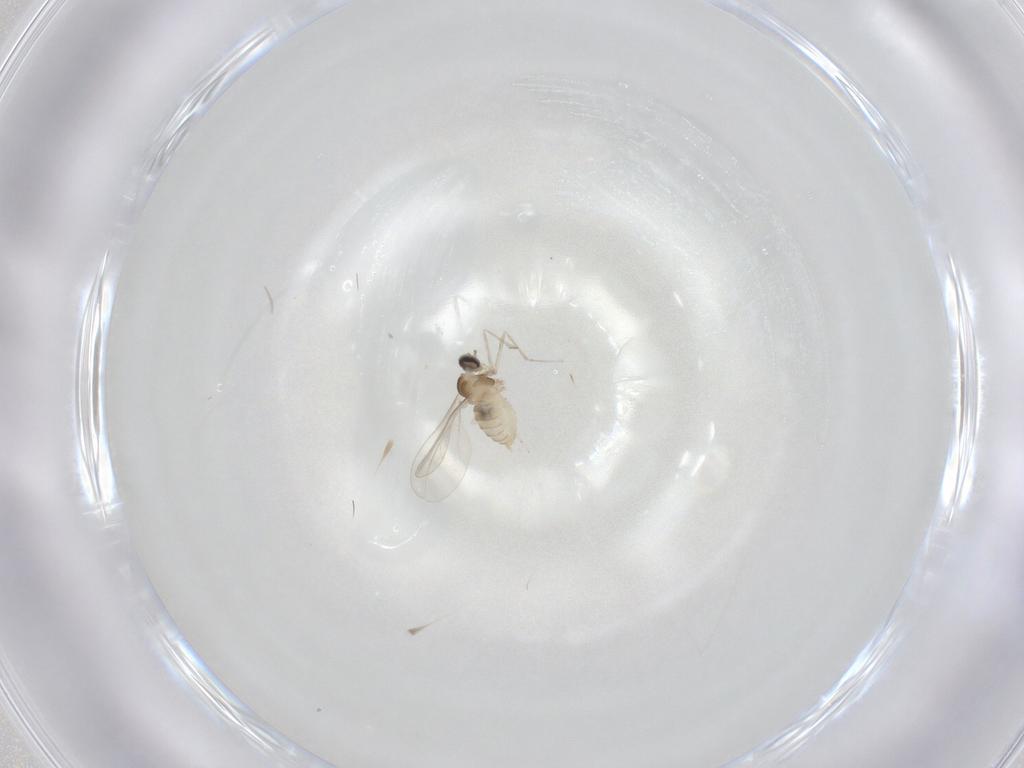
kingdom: Animalia
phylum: Arthropoda
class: Insecta
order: Diptera
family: Cecidomyiidae
